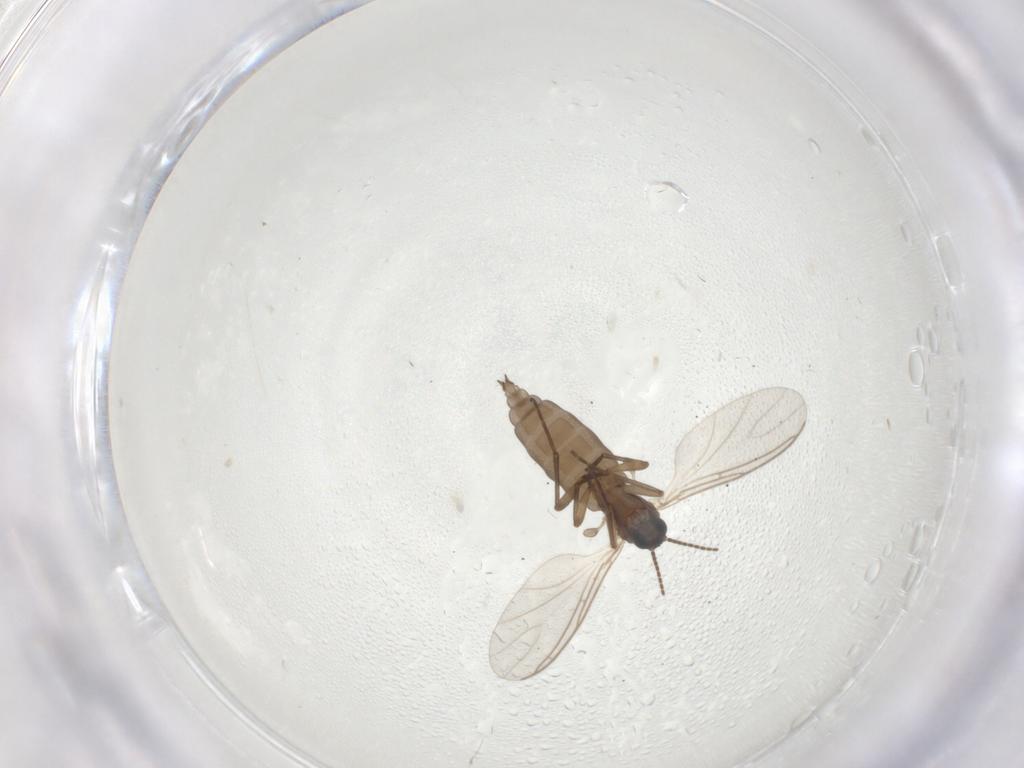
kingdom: Animalia
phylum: Arthropoda
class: Insecta
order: Diptera
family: Sciaridae
